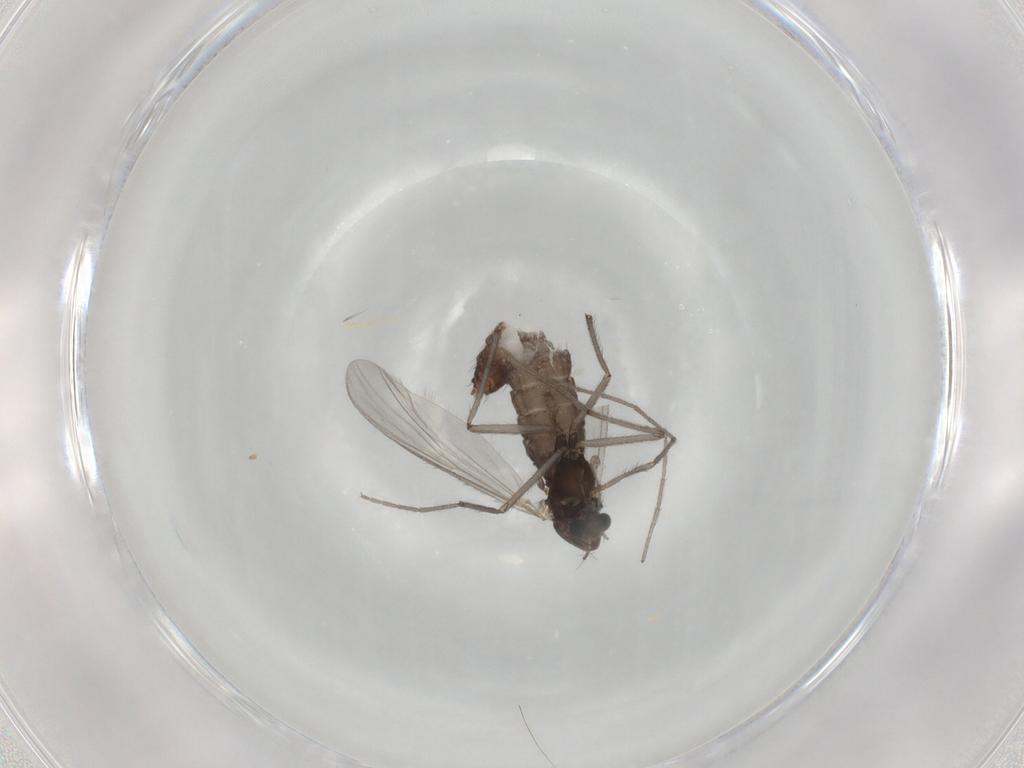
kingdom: Animalia
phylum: Arthropoda
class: Insecta
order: Diptera
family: Chironomidae
